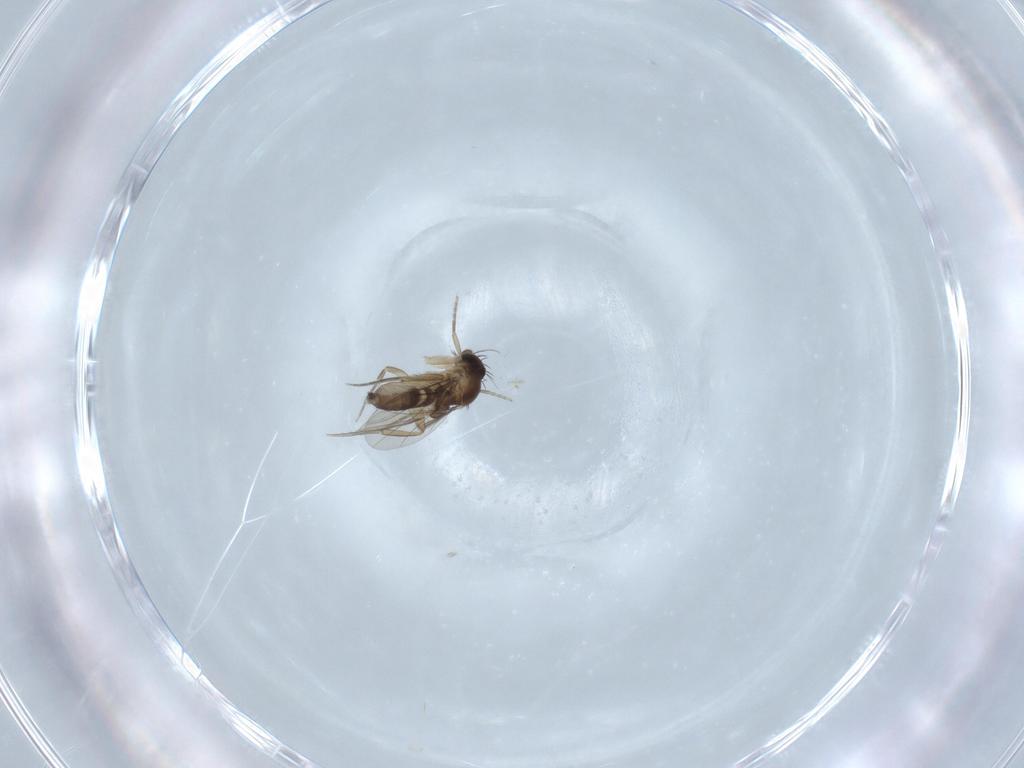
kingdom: Animalia
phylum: Arthropoda
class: Insecta
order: Diptera
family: Phoridae
